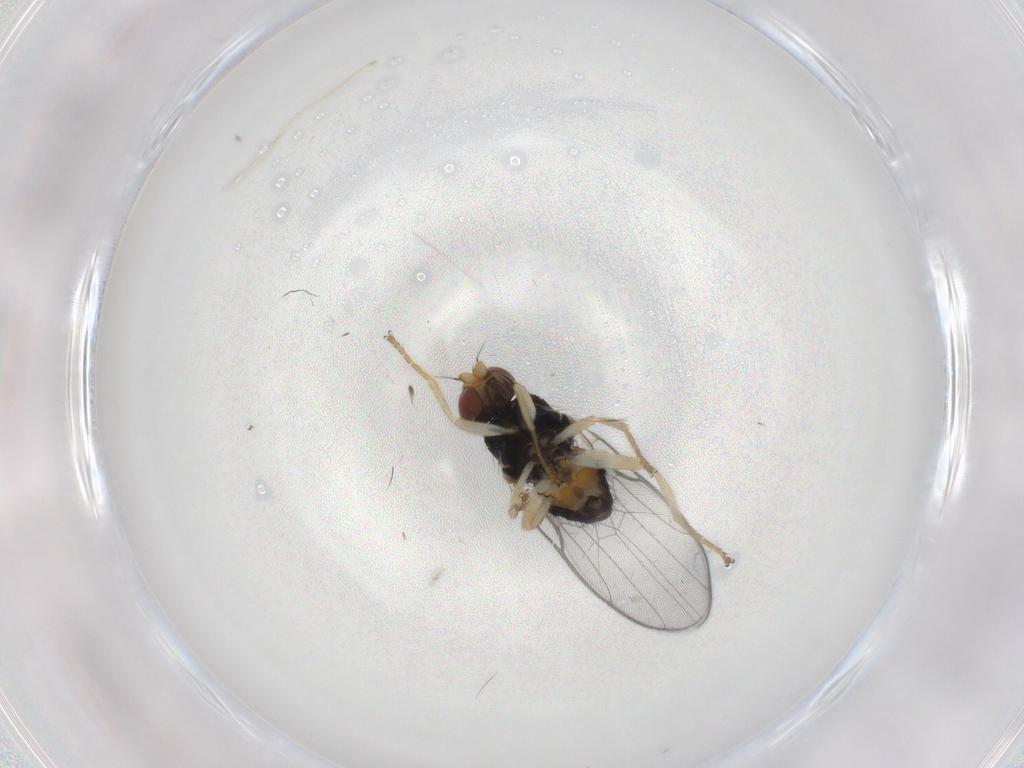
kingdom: Animalia
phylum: Arthropoda
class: Insecta
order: Diptera
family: Chloropidae
